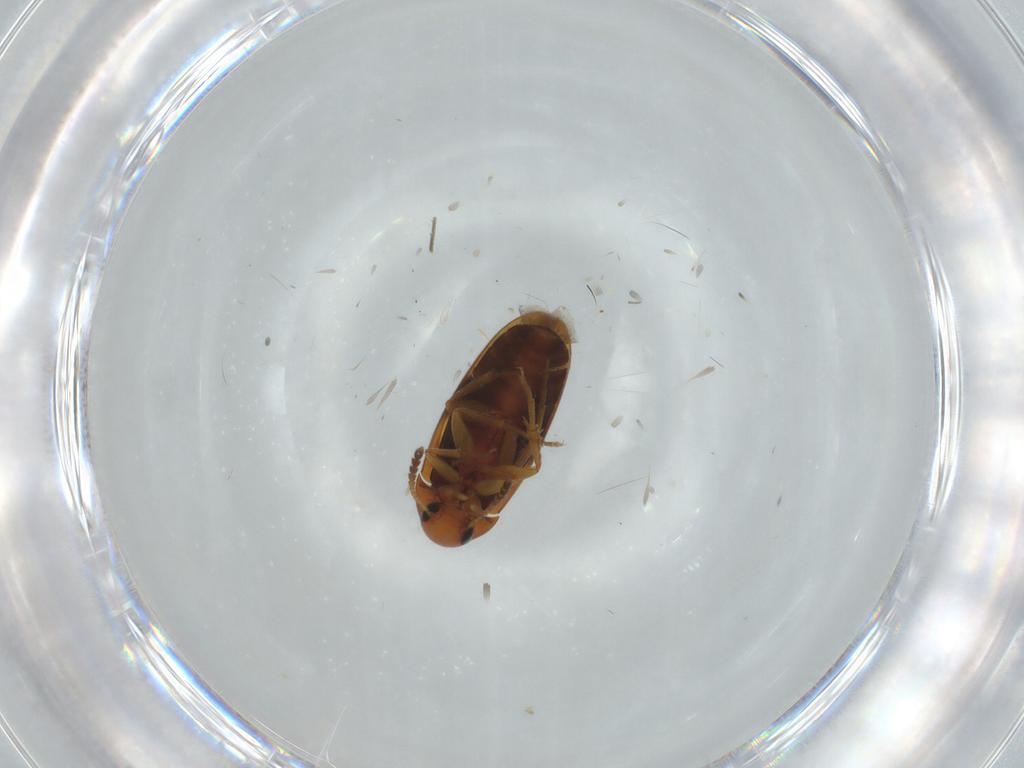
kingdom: Animalia
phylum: Arthropoda
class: Insecta
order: Coleoptera
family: Scraptiidae
